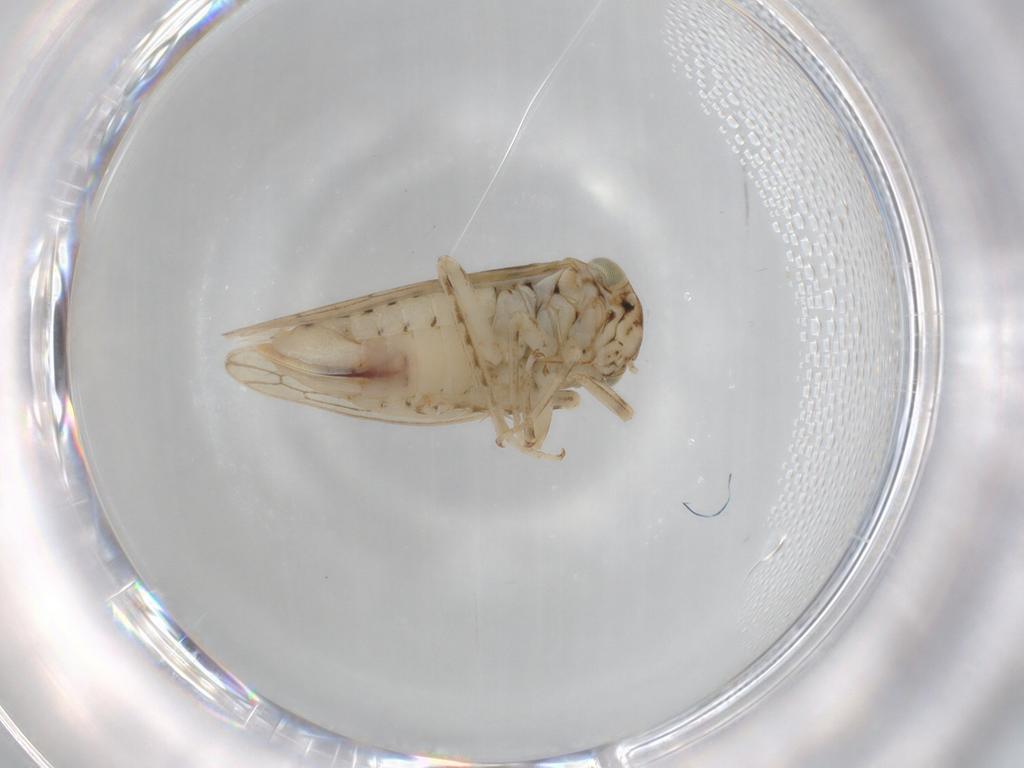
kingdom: Animalia
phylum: Arthropoda
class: Insecta
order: Hemiptera
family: Cicadellidae
